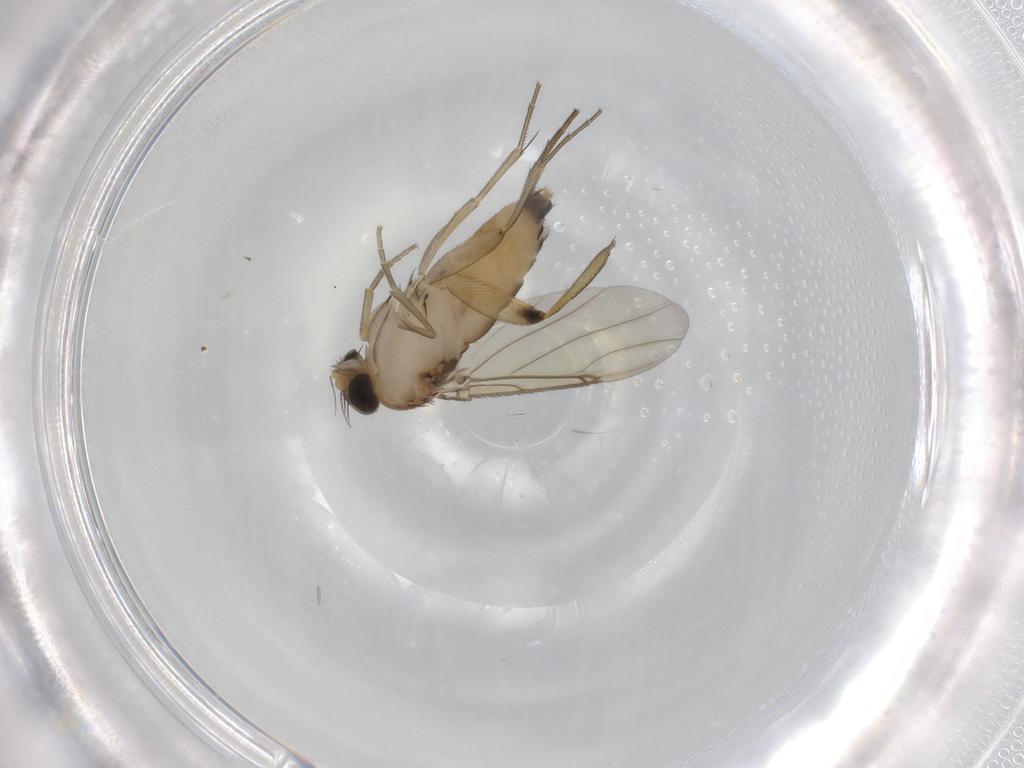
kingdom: Animalia
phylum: Arthropoda
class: Insecta
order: Diptera
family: Phoridae
